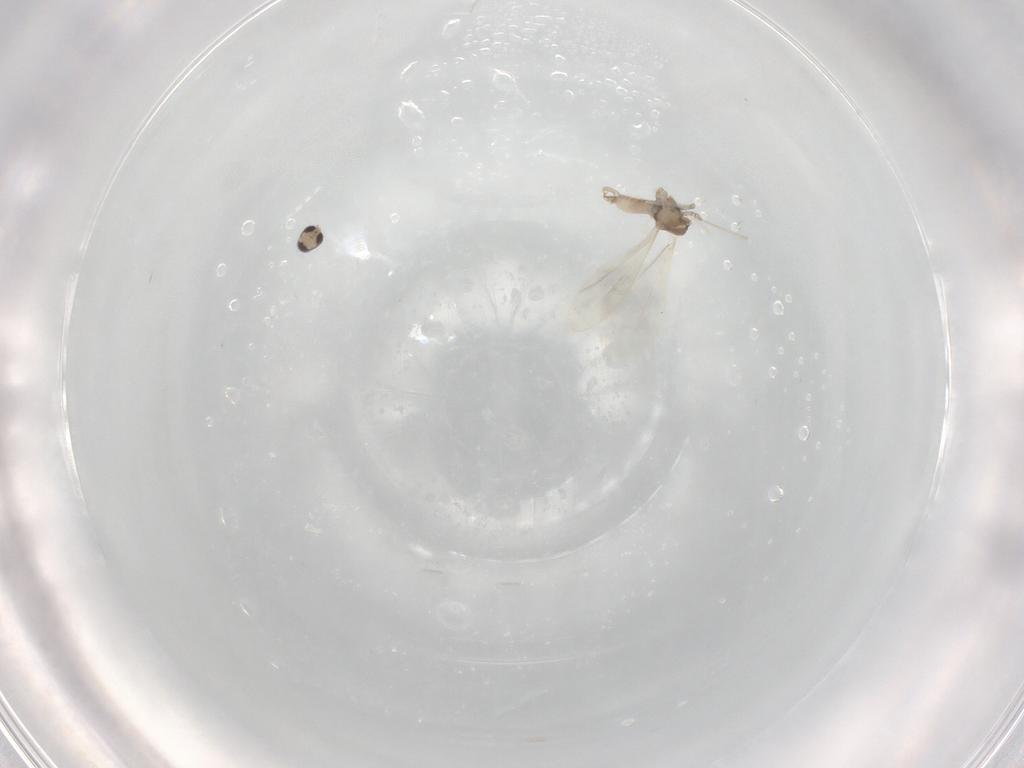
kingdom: Animalia
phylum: Arthropoda
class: Insecta
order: Diptera
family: Cecidomyiidae
